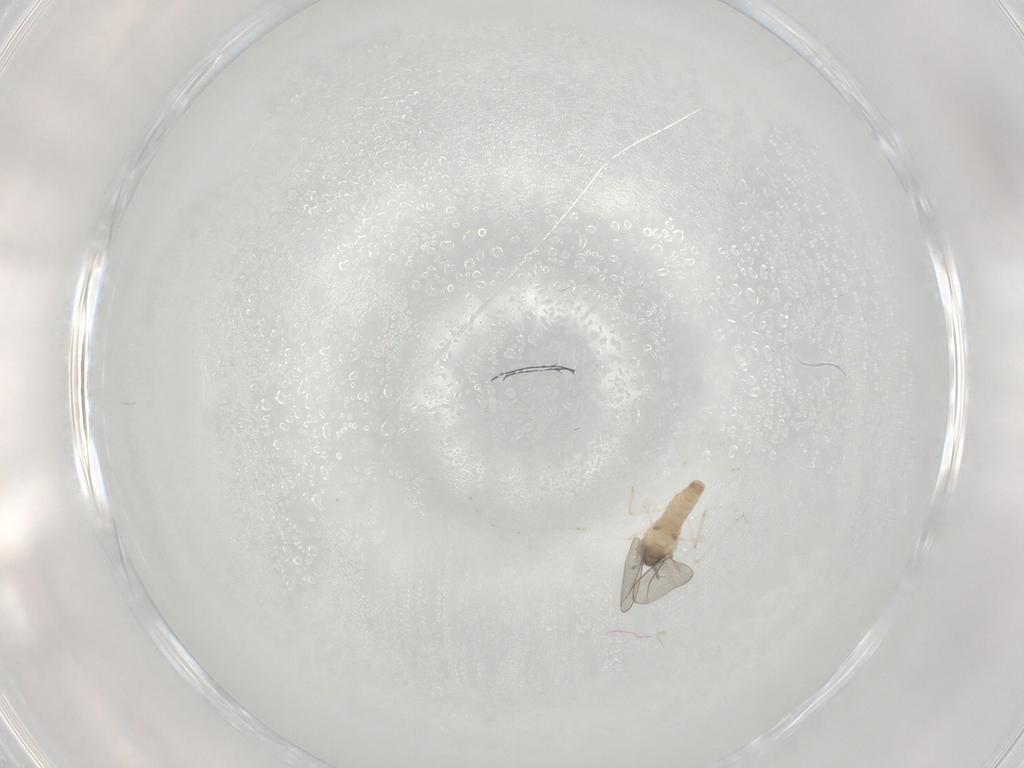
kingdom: Animalia
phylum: Arthropoda
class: Insecta
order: Diptera
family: Cecidomyiidae
